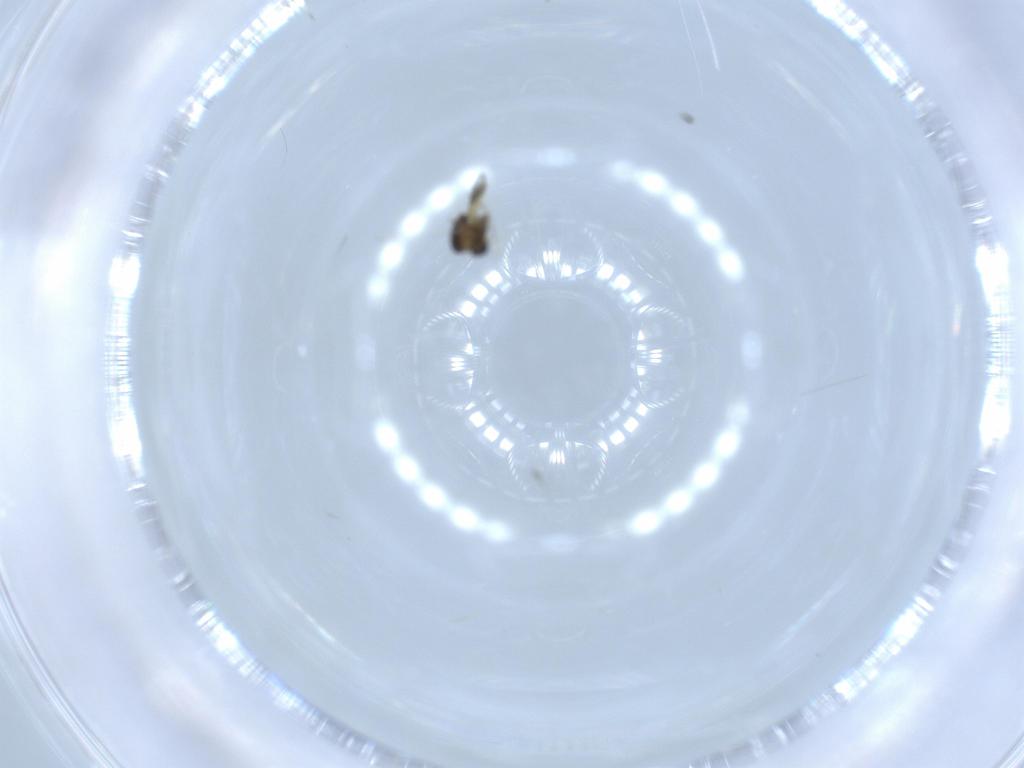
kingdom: Animalia
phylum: Arthropoda
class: Insecta
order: Diptera
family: Chironomidae
